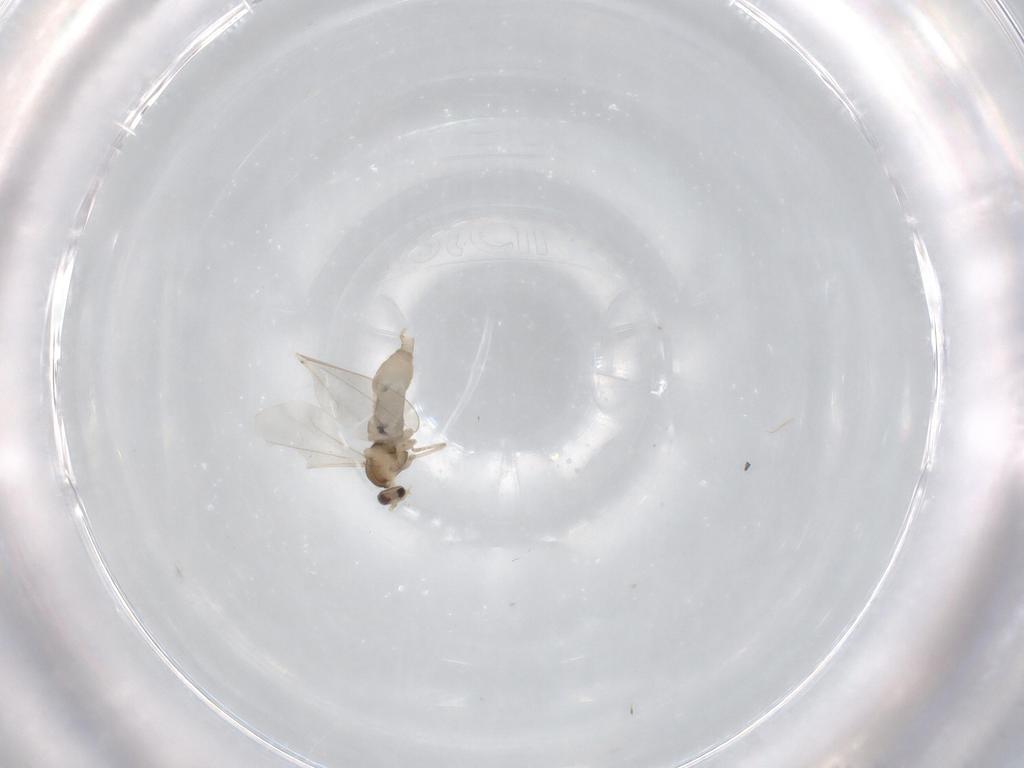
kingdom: Animalia
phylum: Arthropoda
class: Insecta
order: Diptera
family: Cecidomyiidae
